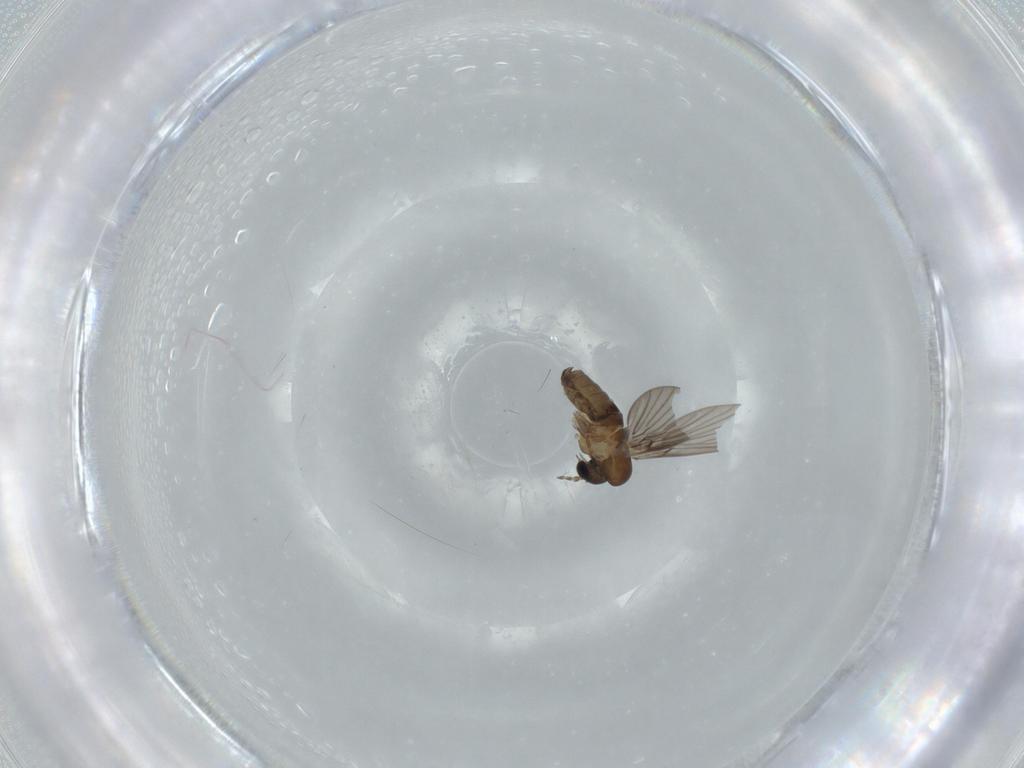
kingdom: Animalia
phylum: Arthropoda
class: Insecta
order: Diptera
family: Psychodidae
